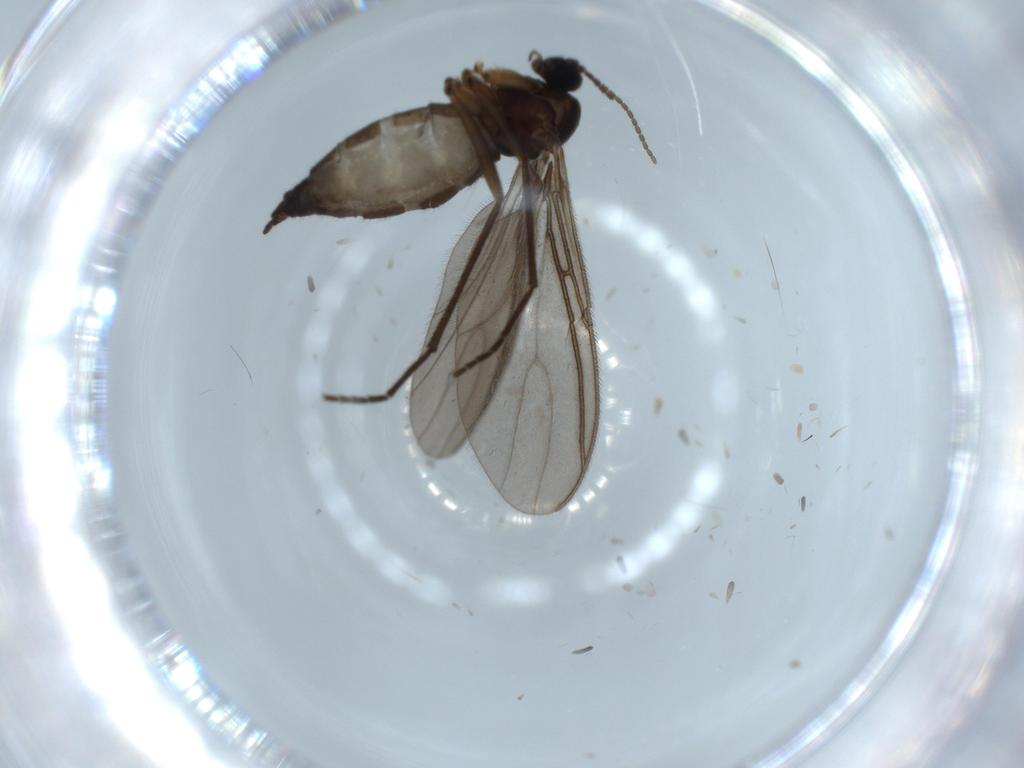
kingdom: Animalia
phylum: Arthropoda
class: Insecta
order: Diptera
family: Sciaridae
